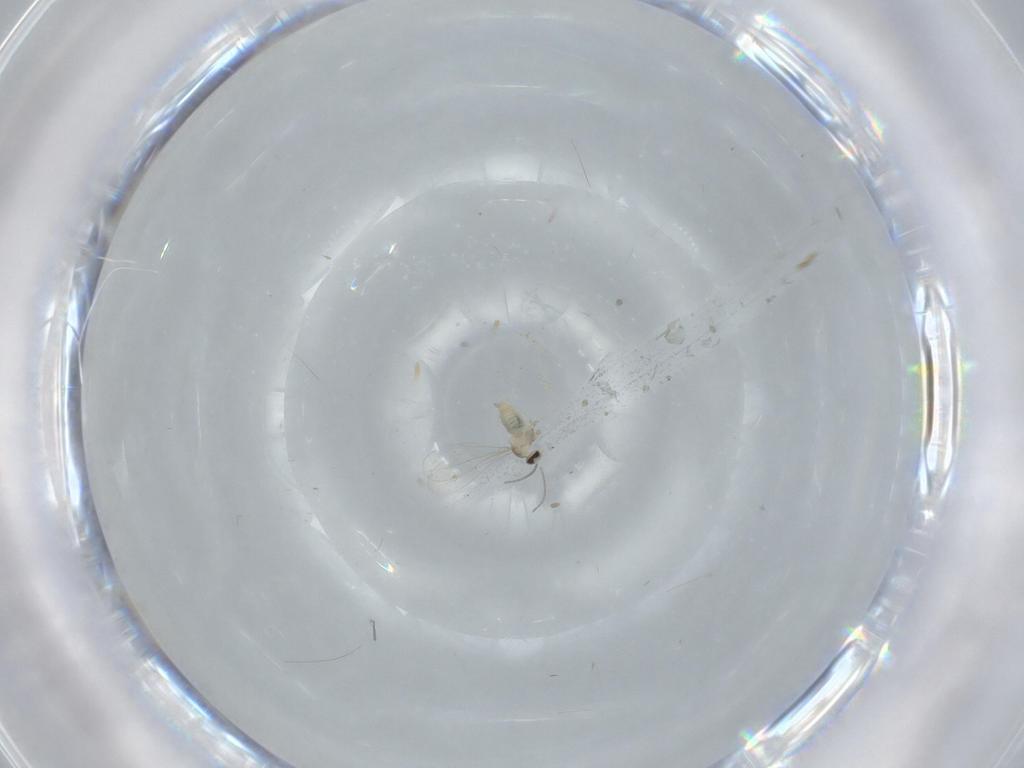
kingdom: Animalia
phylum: Arthropoda
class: Insecta
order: Diptera
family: Cecidomyiidae
